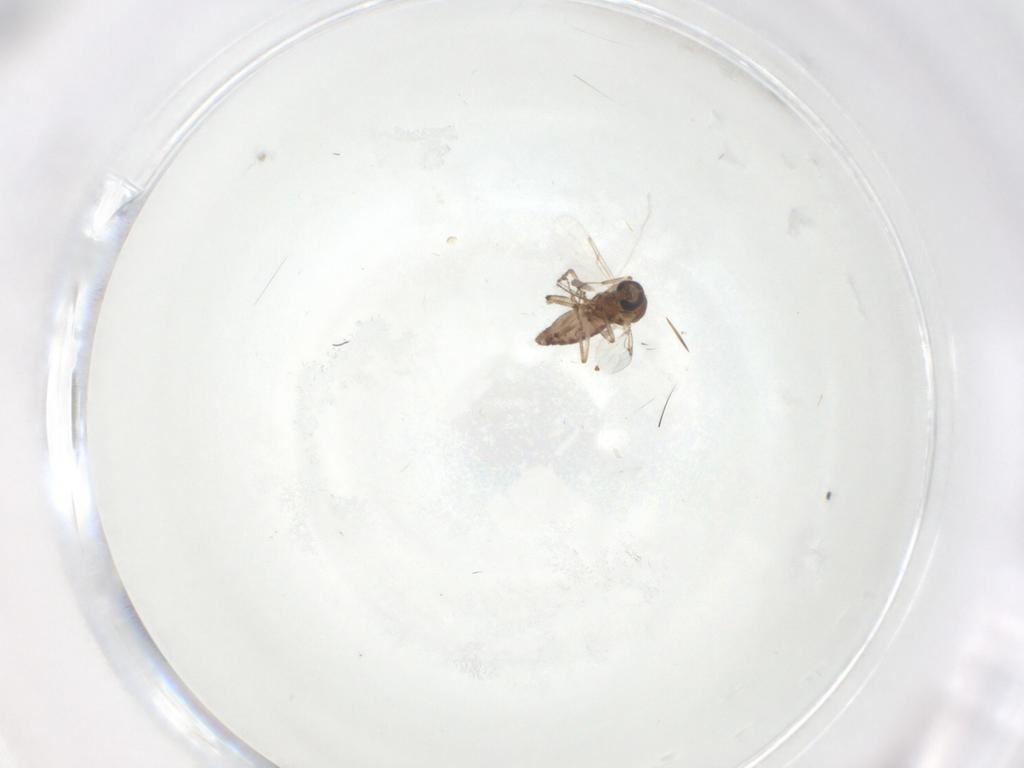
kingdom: Animalia
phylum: Arthropoda
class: Insecta
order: Diptera
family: Ceratopogonidae
